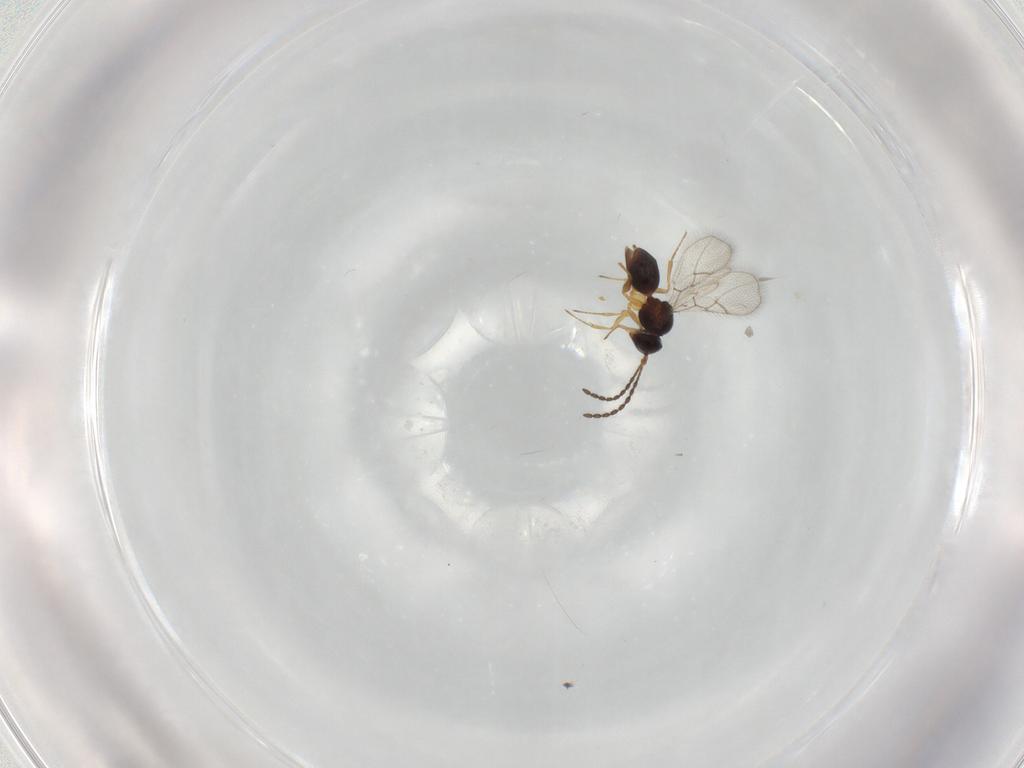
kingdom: Animalia
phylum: Arthropoda
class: Insecta
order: Hymenoptera
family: Figitidae
